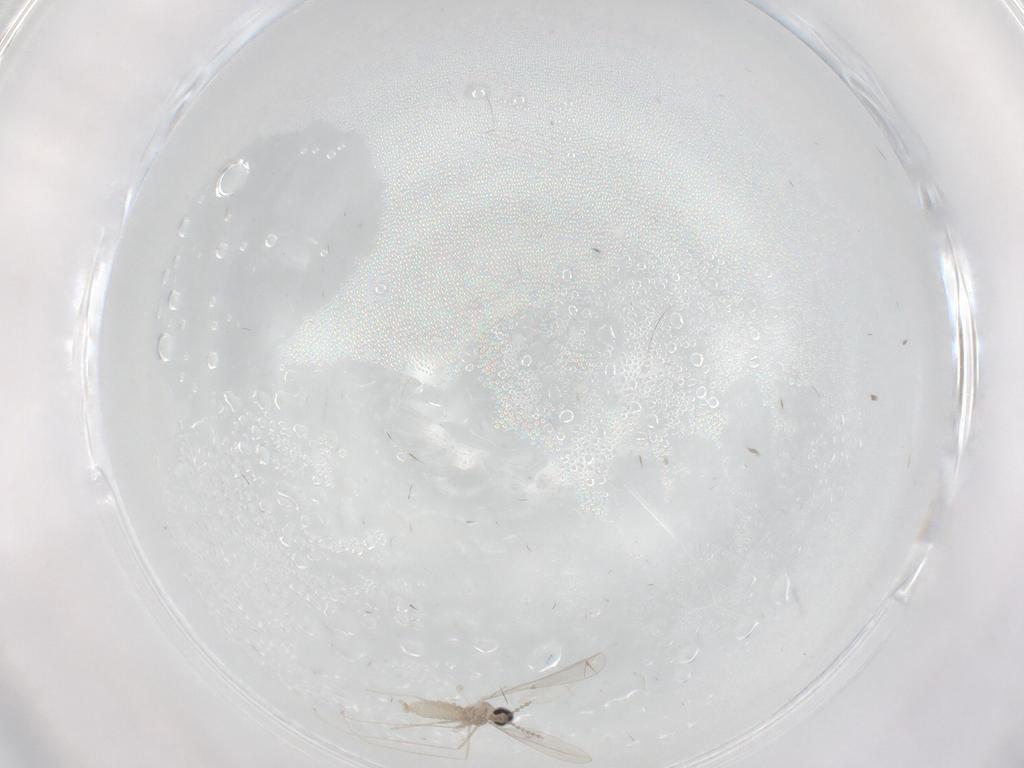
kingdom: Animalia
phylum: Arthropoda
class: Insecta
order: Diptera
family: Cecidomyiidae
